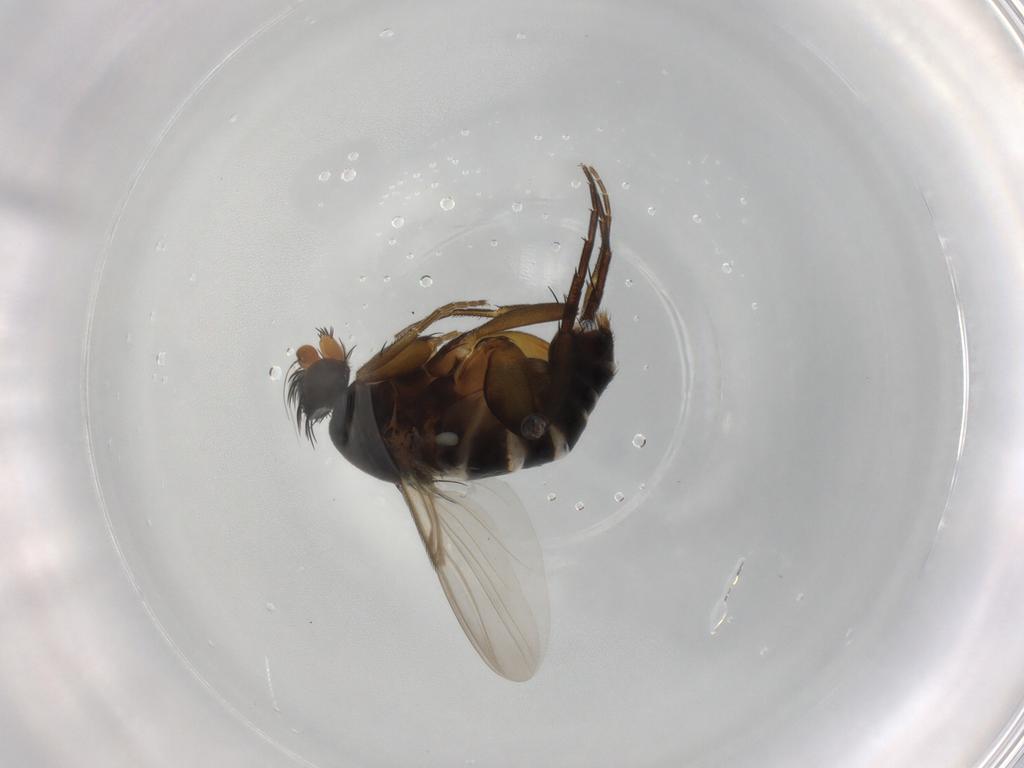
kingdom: Animalia
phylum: Arthropoda
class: Insecta
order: Diptera
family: Phoridae
